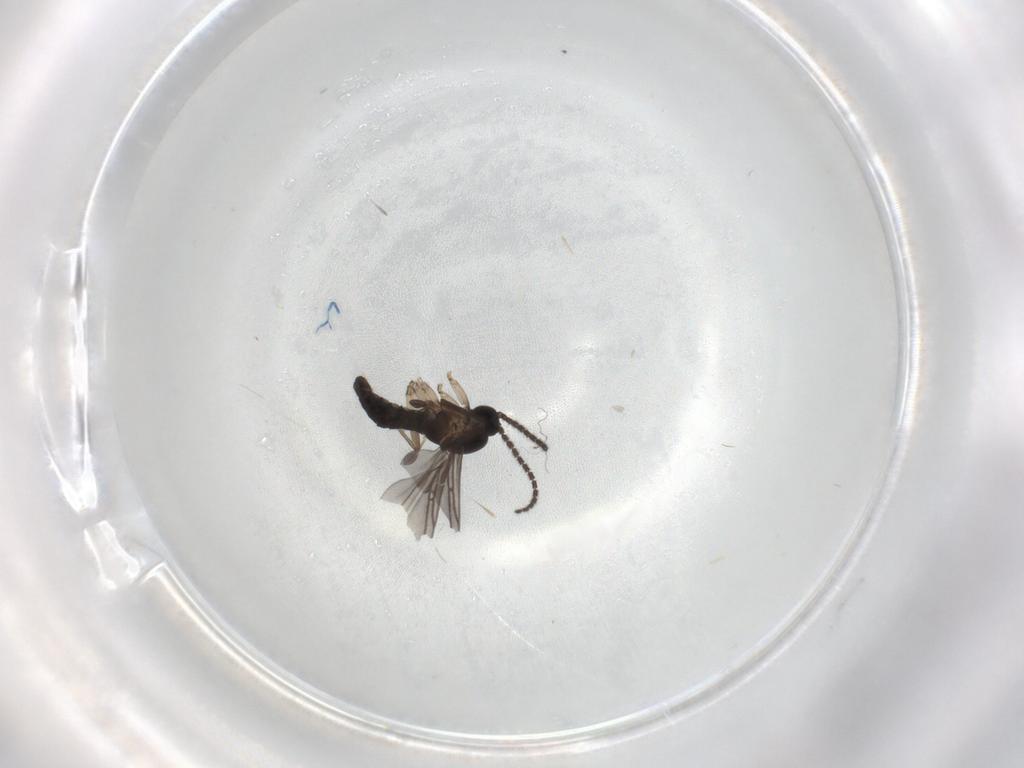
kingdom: Animalia
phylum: Arthropoda
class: Insecta
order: Diptera
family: Sciaridae
